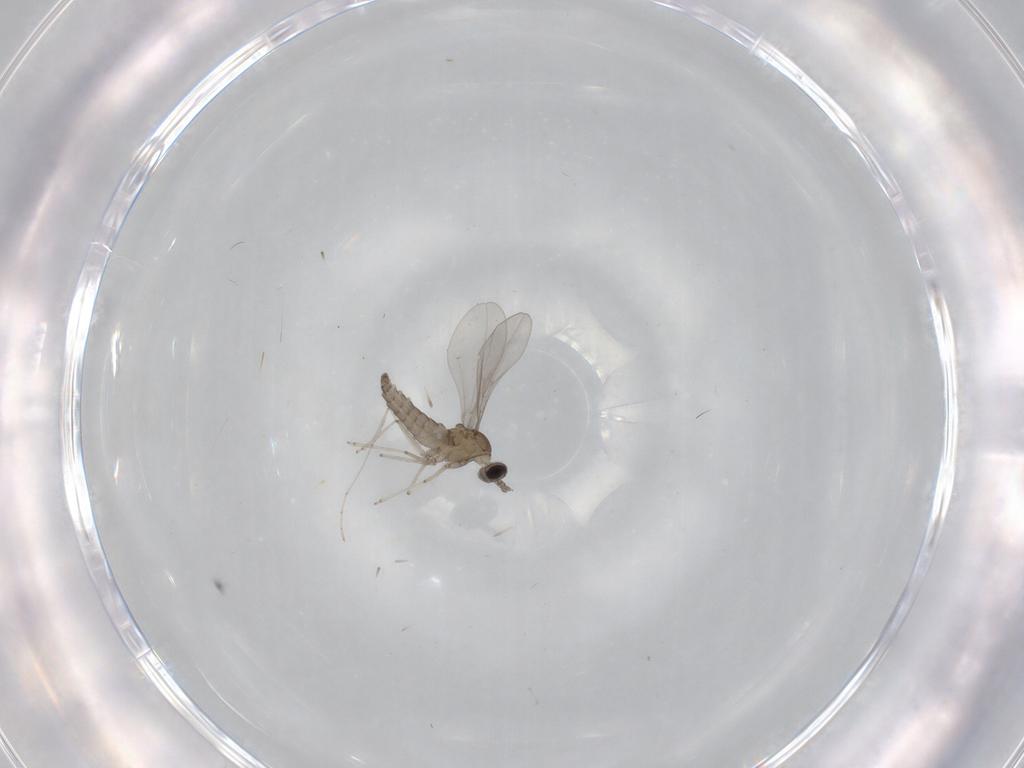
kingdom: Animalia
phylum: Arthropoda
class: Insecta
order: Diptera
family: Cecidomyiidae
